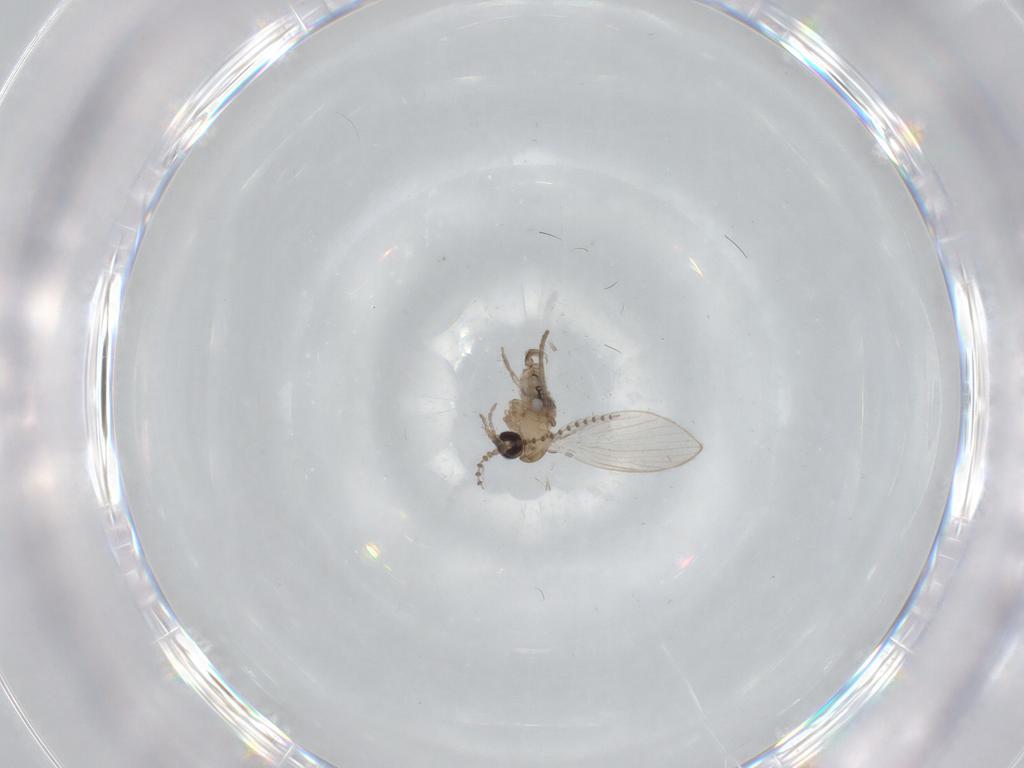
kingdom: Animalia
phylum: Arthropoda
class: Insecta
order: Diptera
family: Psychodidae
